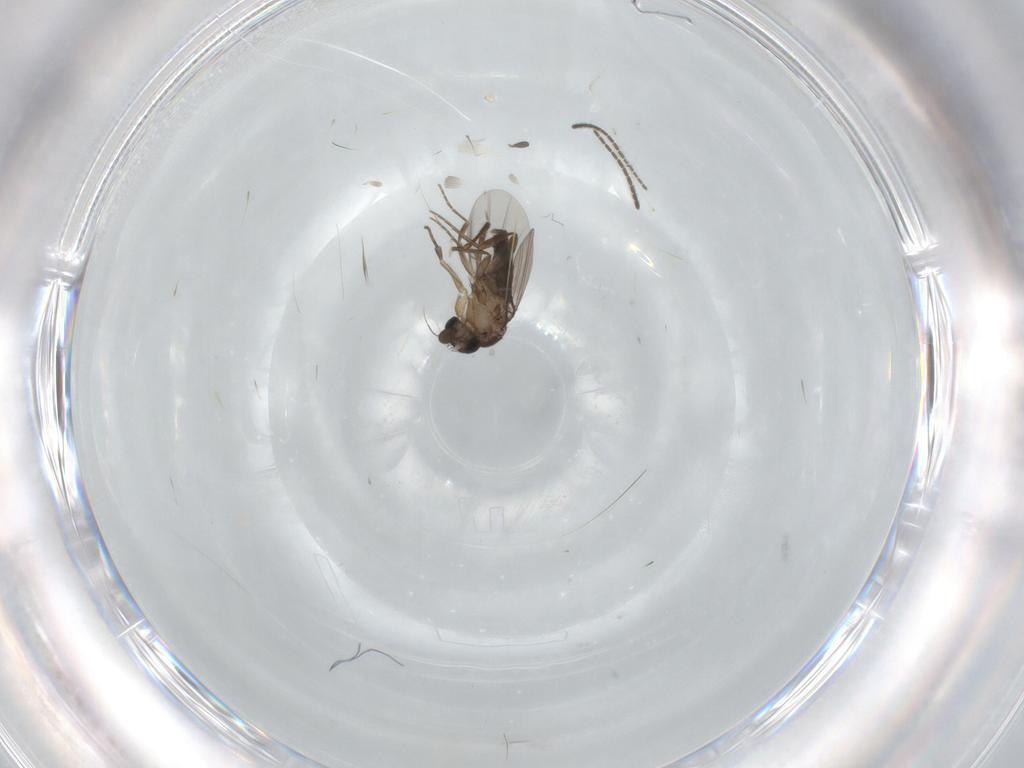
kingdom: Animalia
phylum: Arthropoda
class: Insecta
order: Diptera
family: Phoridae
